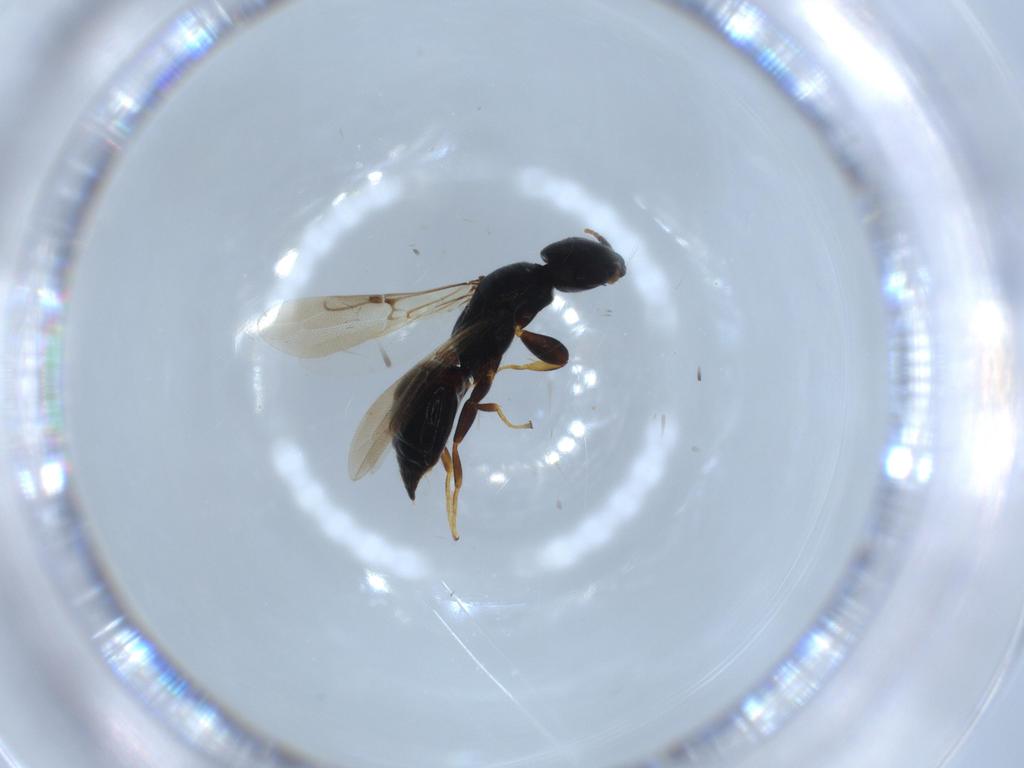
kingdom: Animalia
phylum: Arthropoda
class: Insecta
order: Hymenoptera
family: Bethylidae
